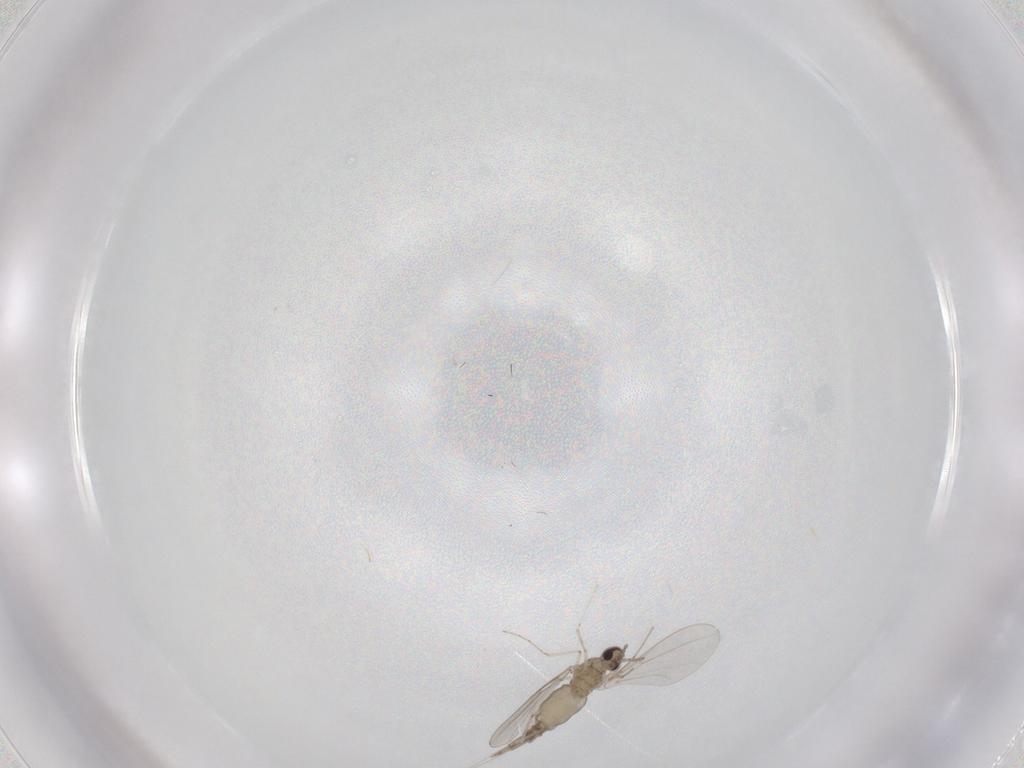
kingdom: Animalia
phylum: Arthropoda
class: Insecta
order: Diptera
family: Cecidomyiidae
